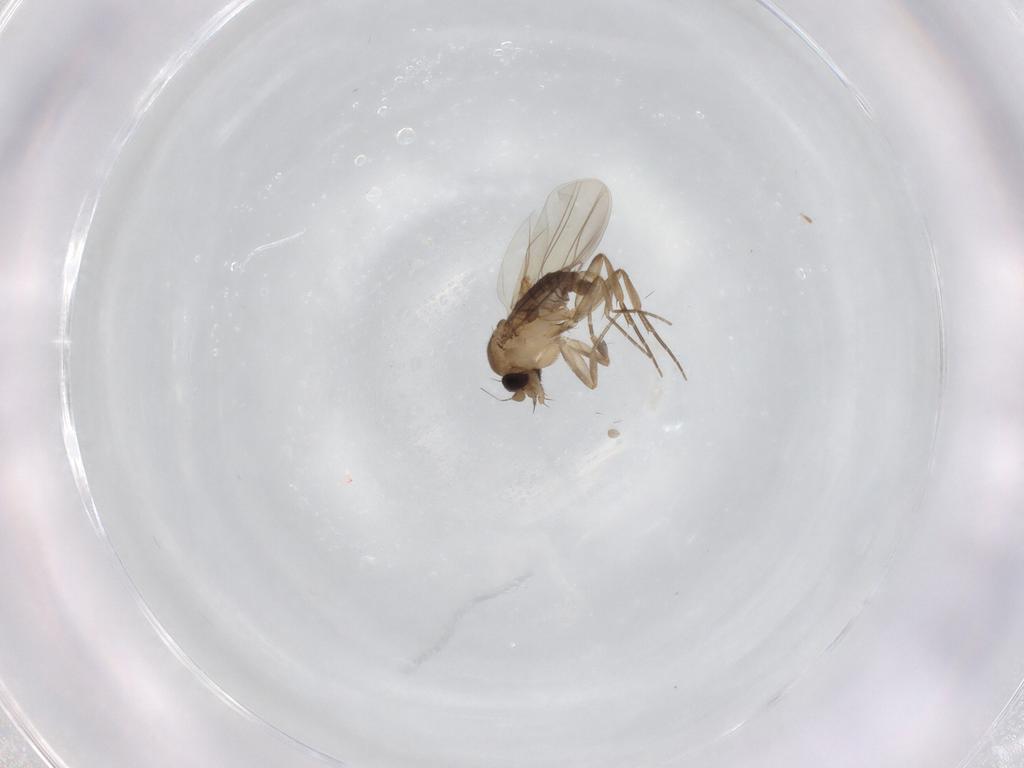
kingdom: Animalia
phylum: Arthropoda
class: Insecta
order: Diptera
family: Phoridae
